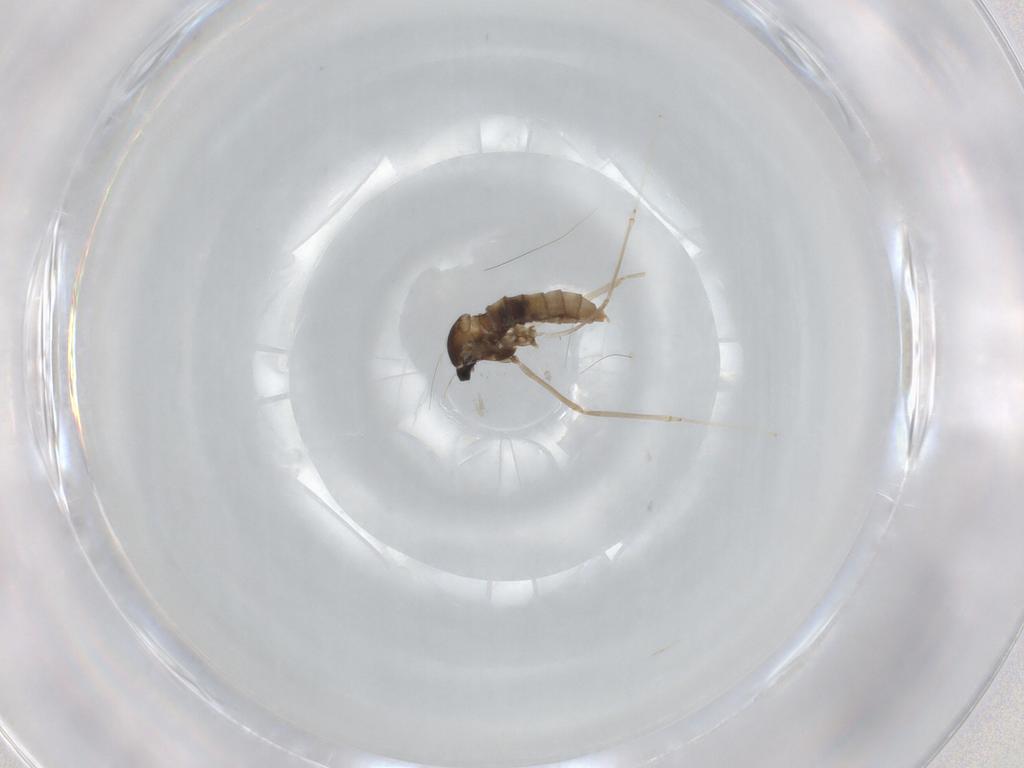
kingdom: Animalia
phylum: Arthropoda
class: Insecta
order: Diptera
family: Cecidomyiidae
